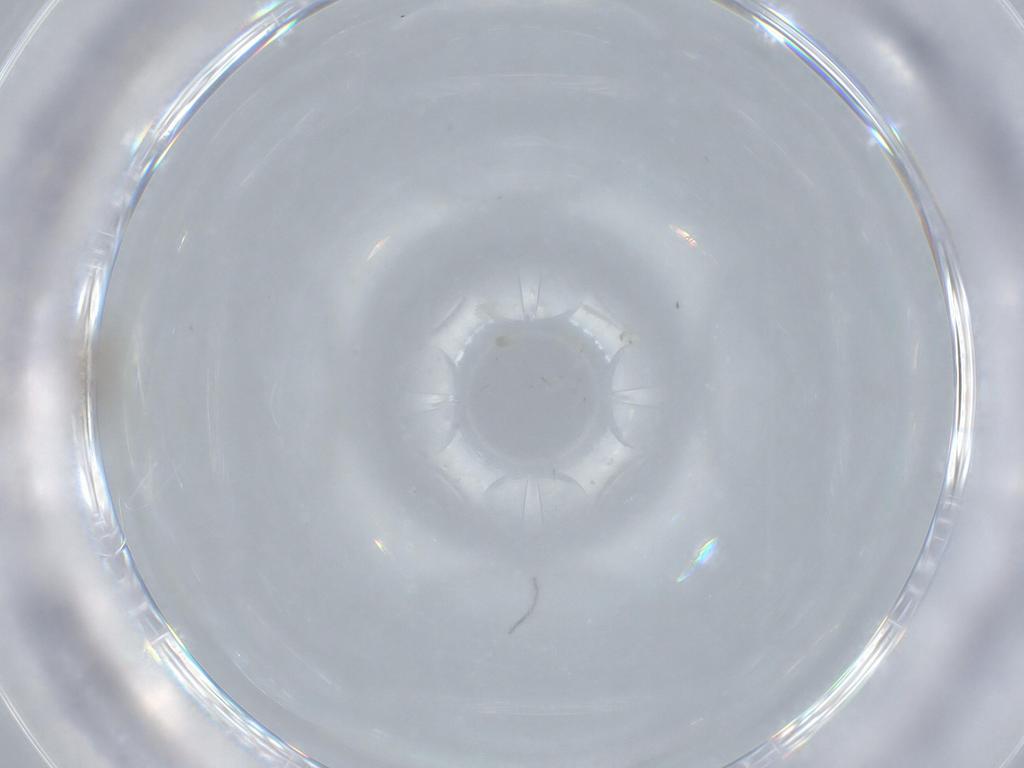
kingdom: Animalia
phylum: Arthropoda
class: Insecta
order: Diptera
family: Phoridae
